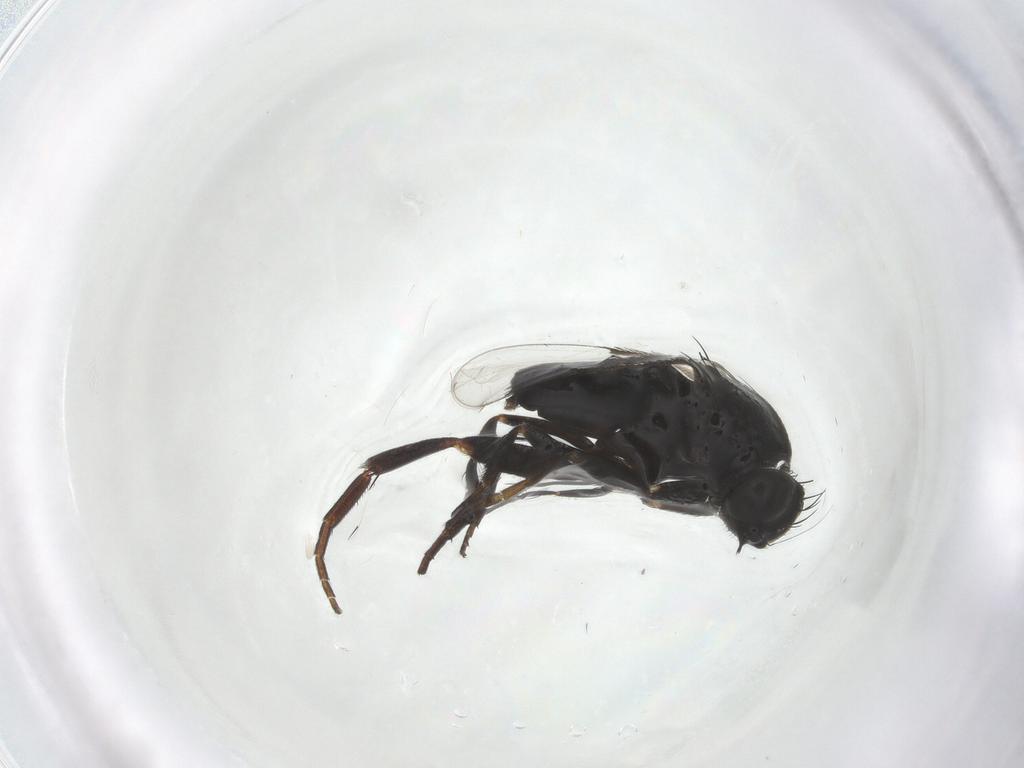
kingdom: Animalia
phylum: Arthropoda
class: Insecta
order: Diptera
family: Phoridae
